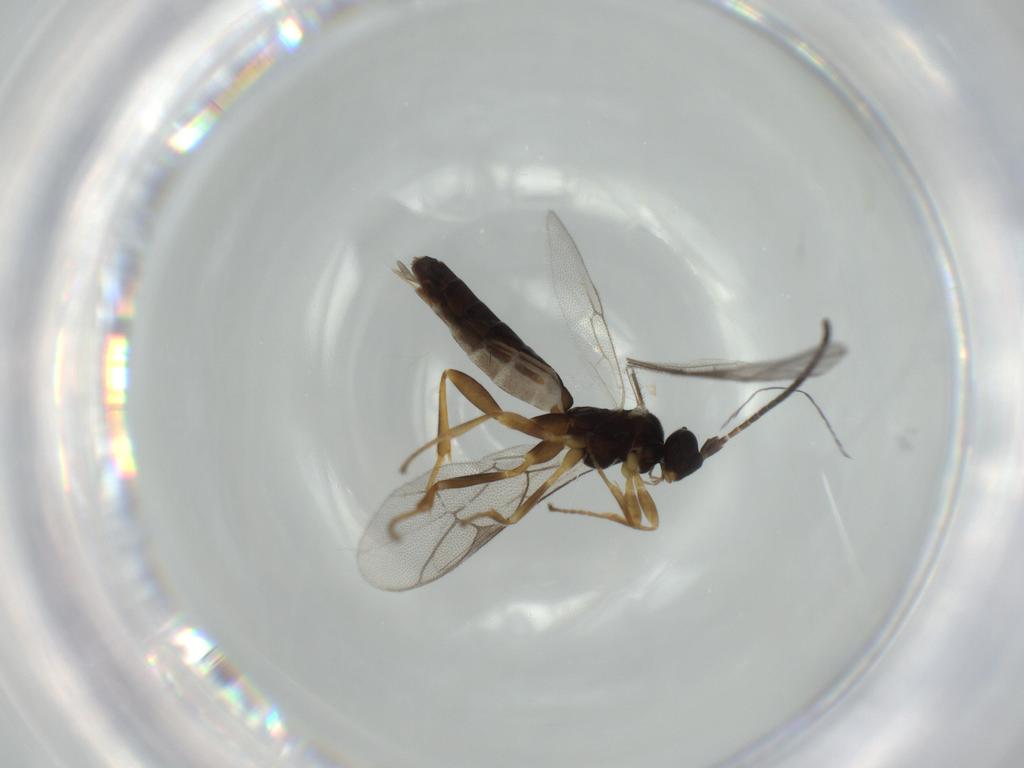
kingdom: Animalia
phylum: Arthropoda
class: Insecta
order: Hymenoptera
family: Ichneumonidae
